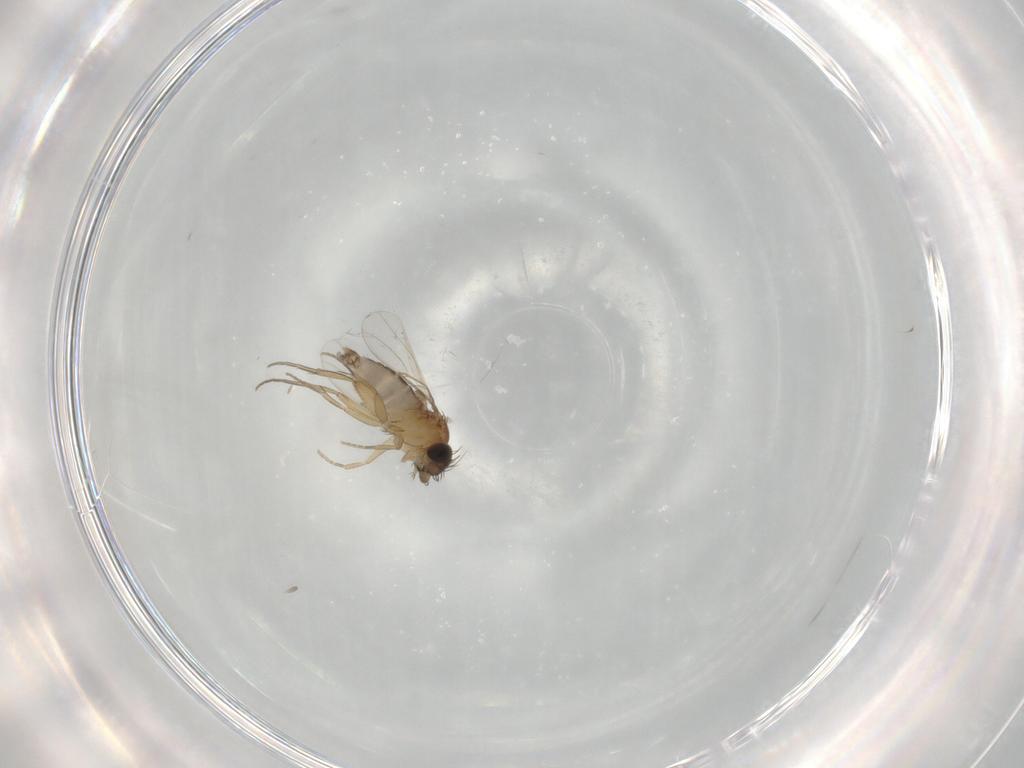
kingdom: Animalia
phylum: Arthropoda
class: Insecta
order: Diptera
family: Phoridae
